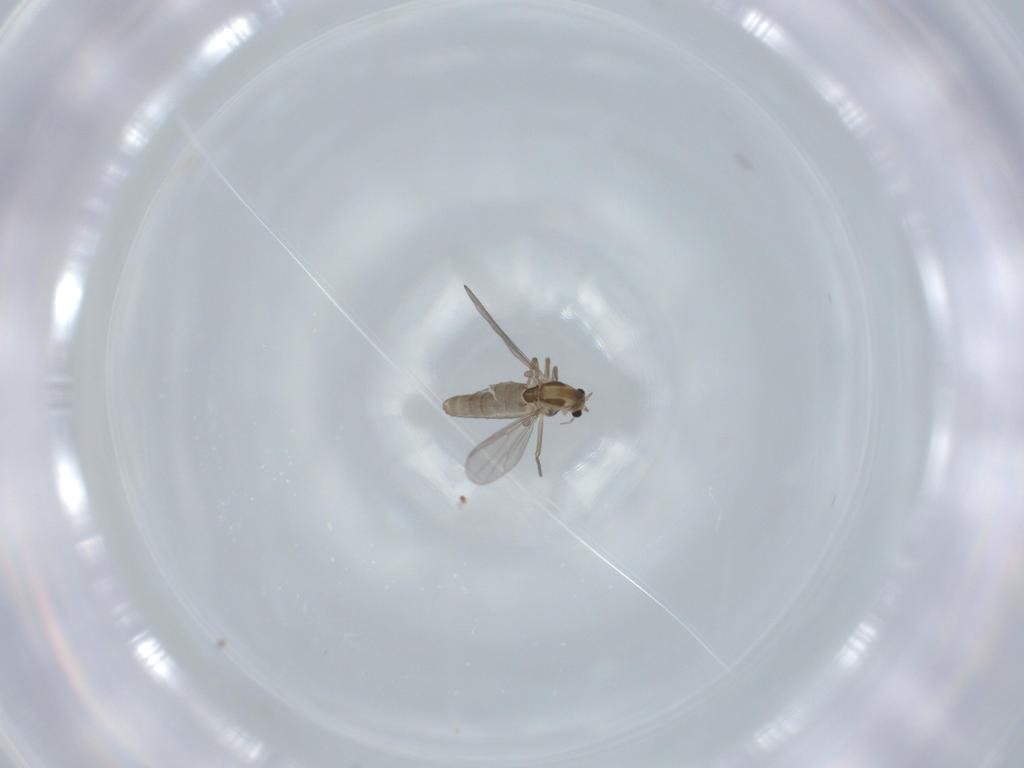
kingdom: Animalia
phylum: Arthropoda
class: Insecta
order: Diptera
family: Chironomidae
